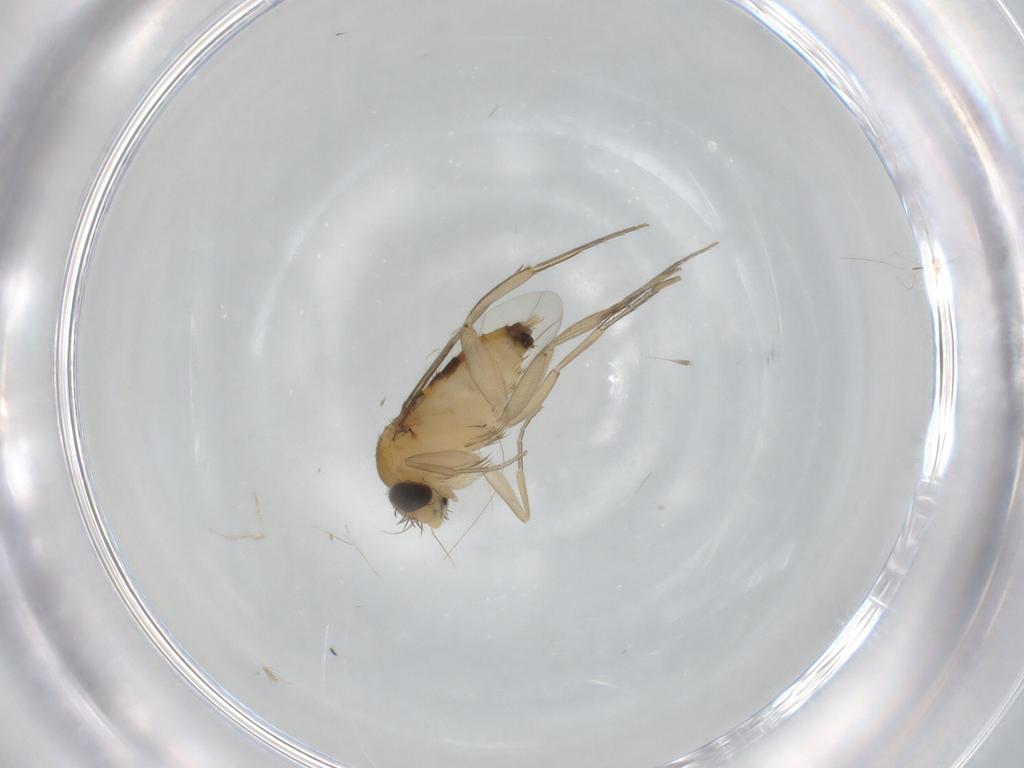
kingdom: Animalia
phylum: Arthropoda
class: Insecta
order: Diptera
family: Phoridae
